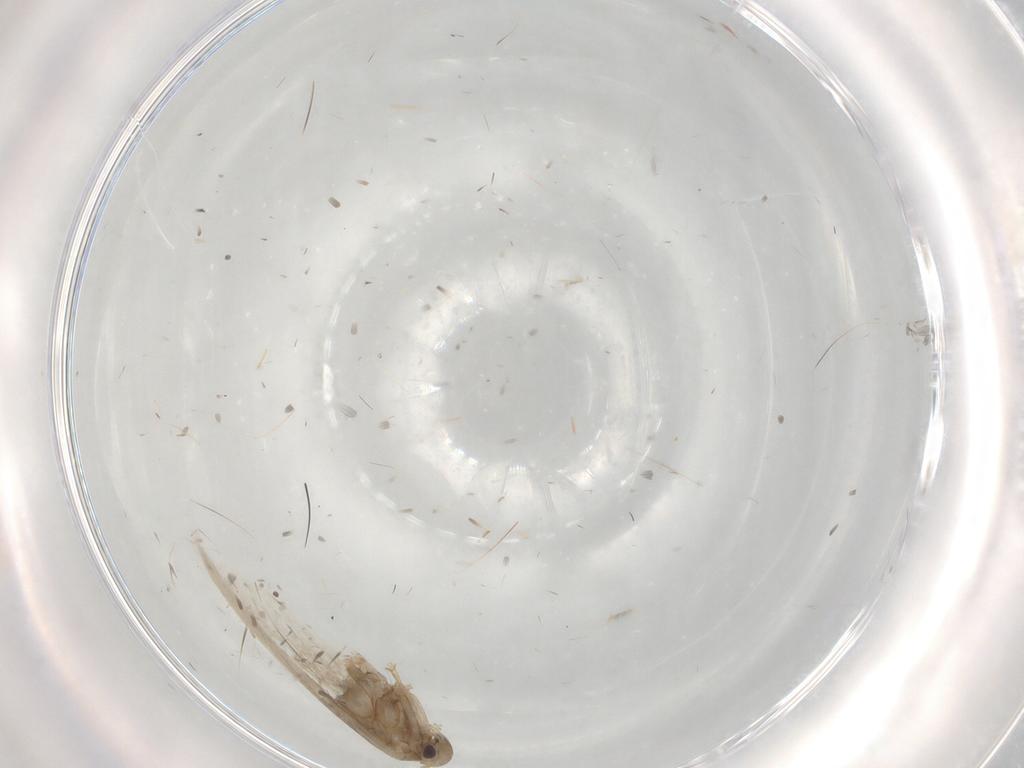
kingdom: Animalia
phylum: Arthropoda
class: Insecta
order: Lepidoptera
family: Gracillariidae
